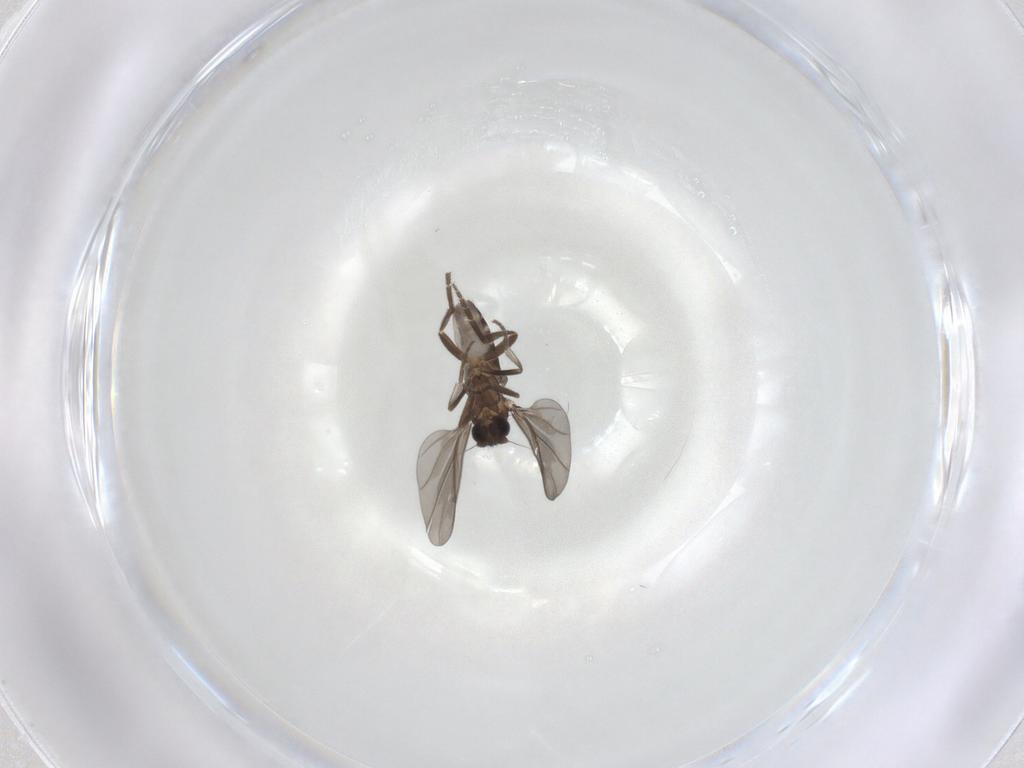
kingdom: Animalia
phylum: Arthropoda
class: Insecta
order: Diptera
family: Phoridae
